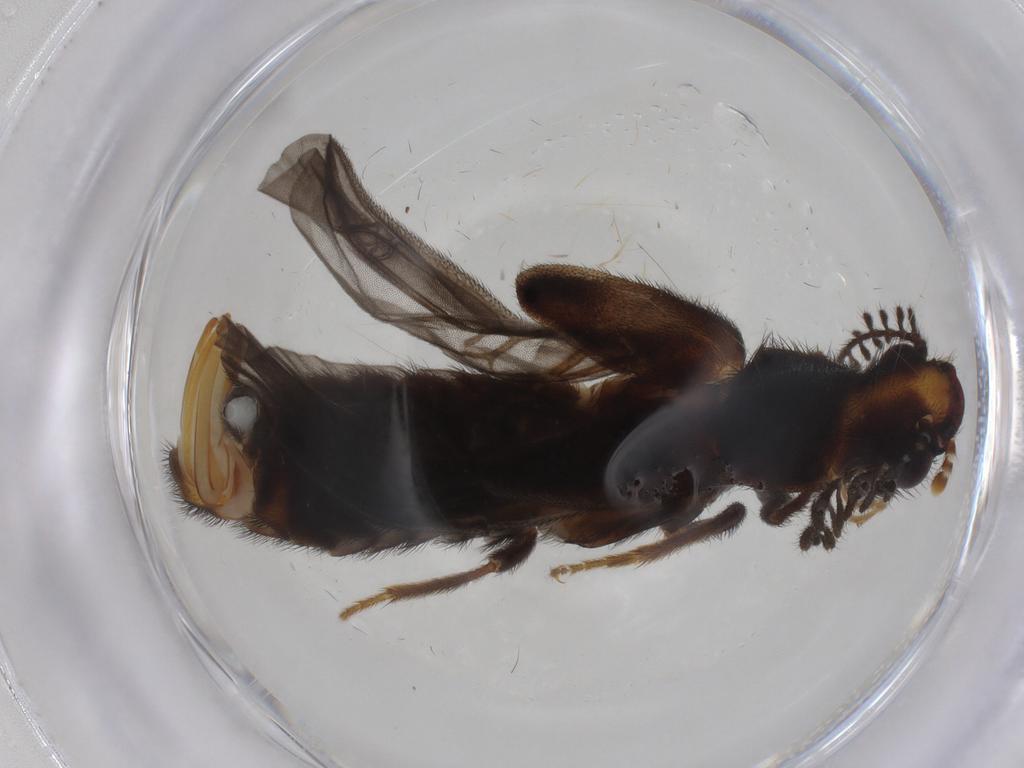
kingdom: Animalia
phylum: Arthropoda
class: Insecta
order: Coleoptera
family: Phengodidae
